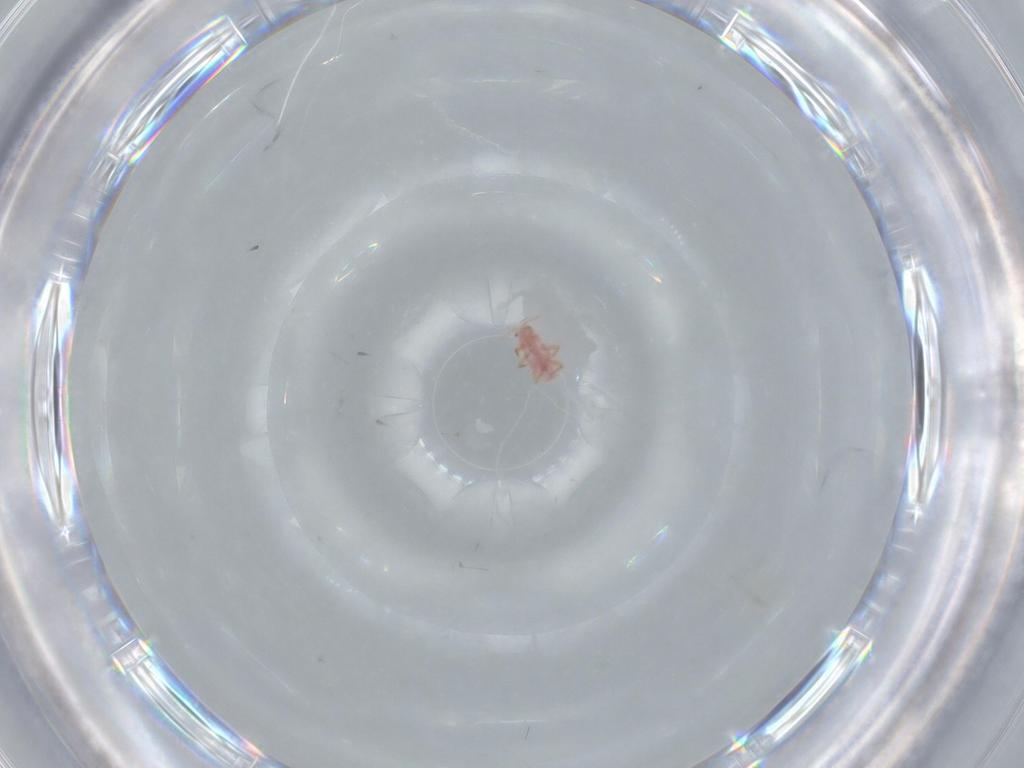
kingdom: Animalia
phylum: Arthropoda
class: Insecta
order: Hemiptera
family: Pseudococcidae
